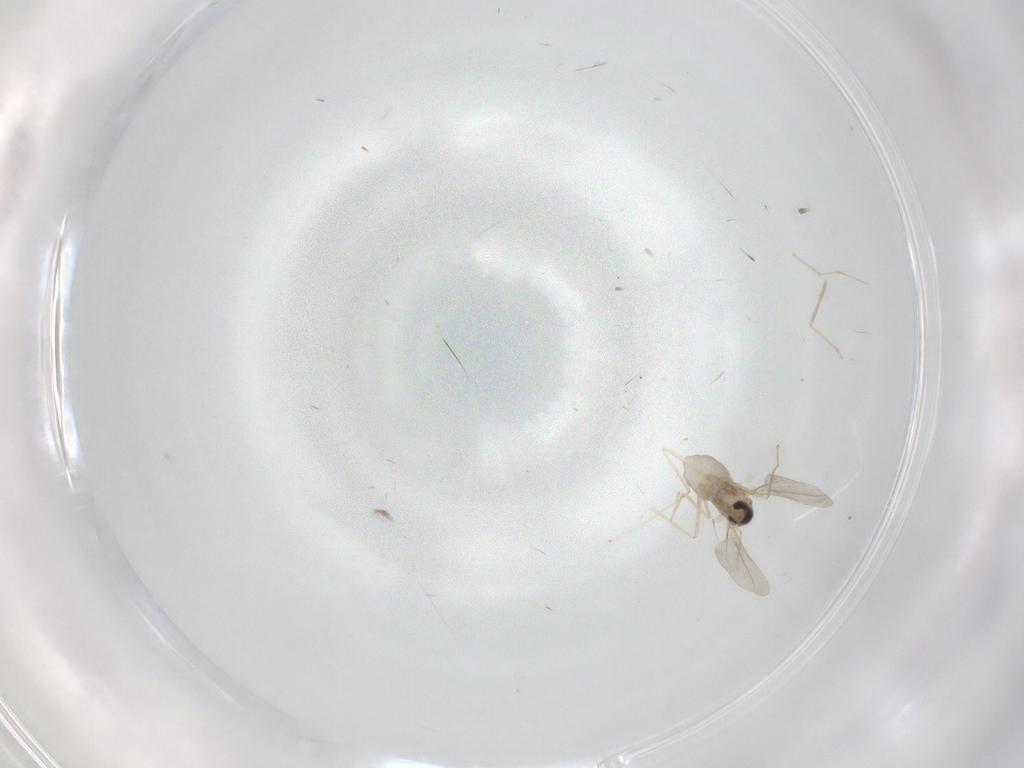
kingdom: Animalia
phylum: Arthropoda
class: Insecta
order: Diptera
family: Cecidomyiidae
